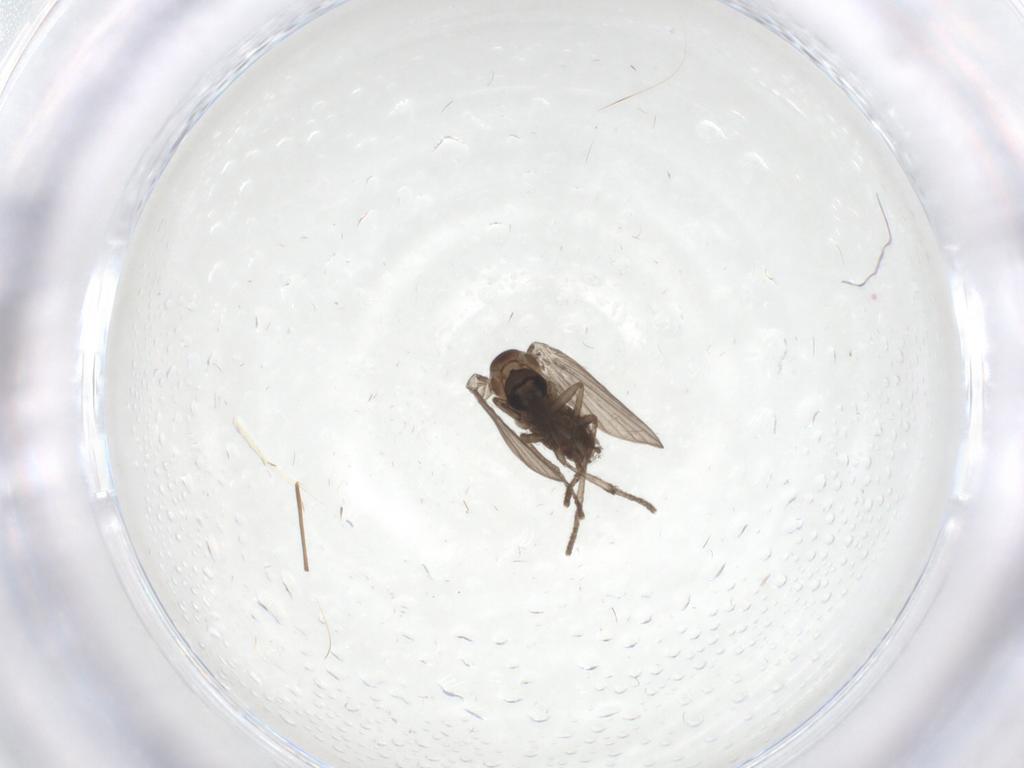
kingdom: Animalia
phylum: Arthropoda
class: Insecta
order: Diptera
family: Psychodidae
